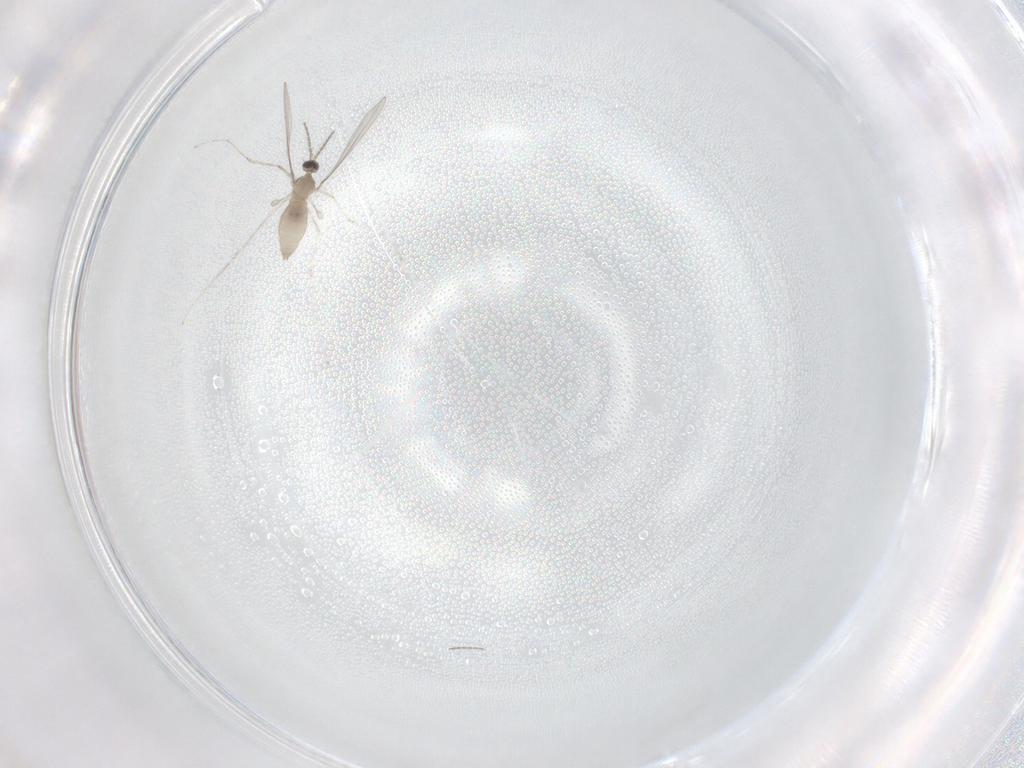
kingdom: Animalia
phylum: Arthropoda
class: Insecta
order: Diptera
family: Cecidomyiidae
